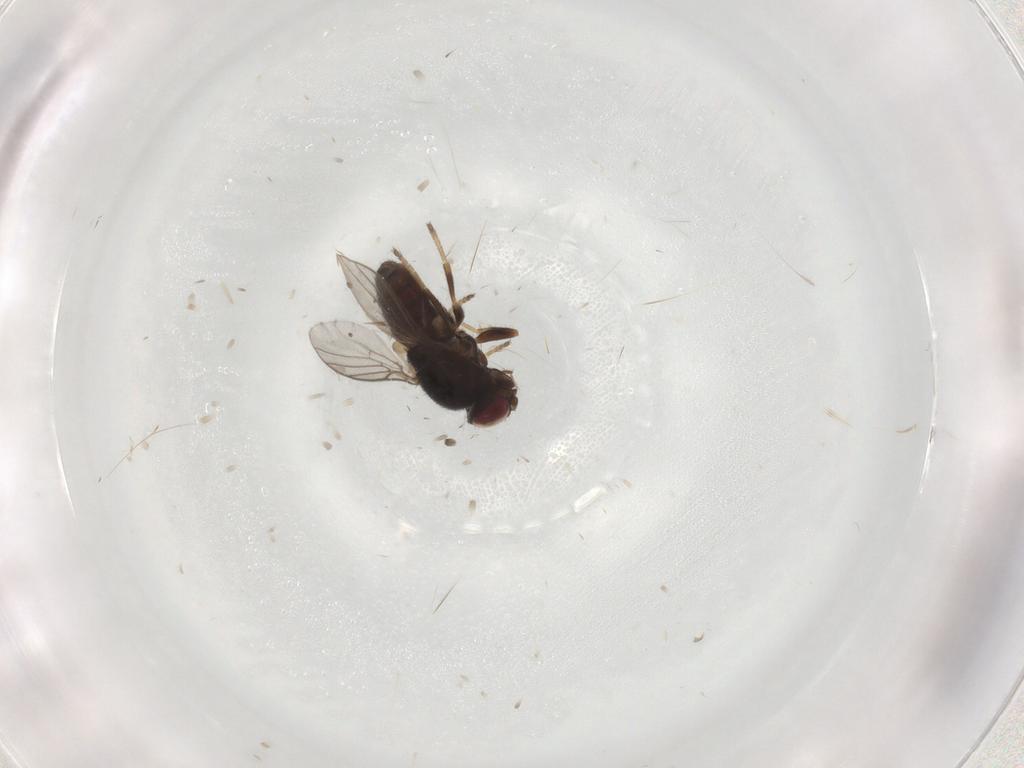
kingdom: Animalia
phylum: Arthropoda
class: Insecta
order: Diptera
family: Chloropidae
